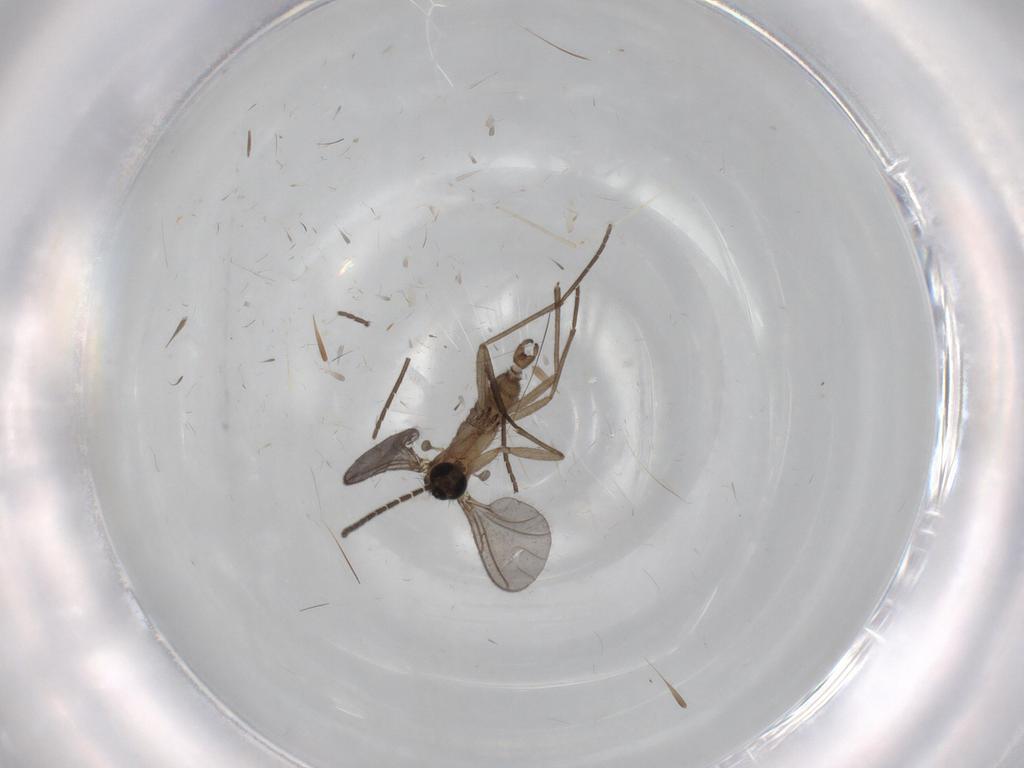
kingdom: Animalia
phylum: Arthropoda
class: Insecta
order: Diptera
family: Sciaridae
